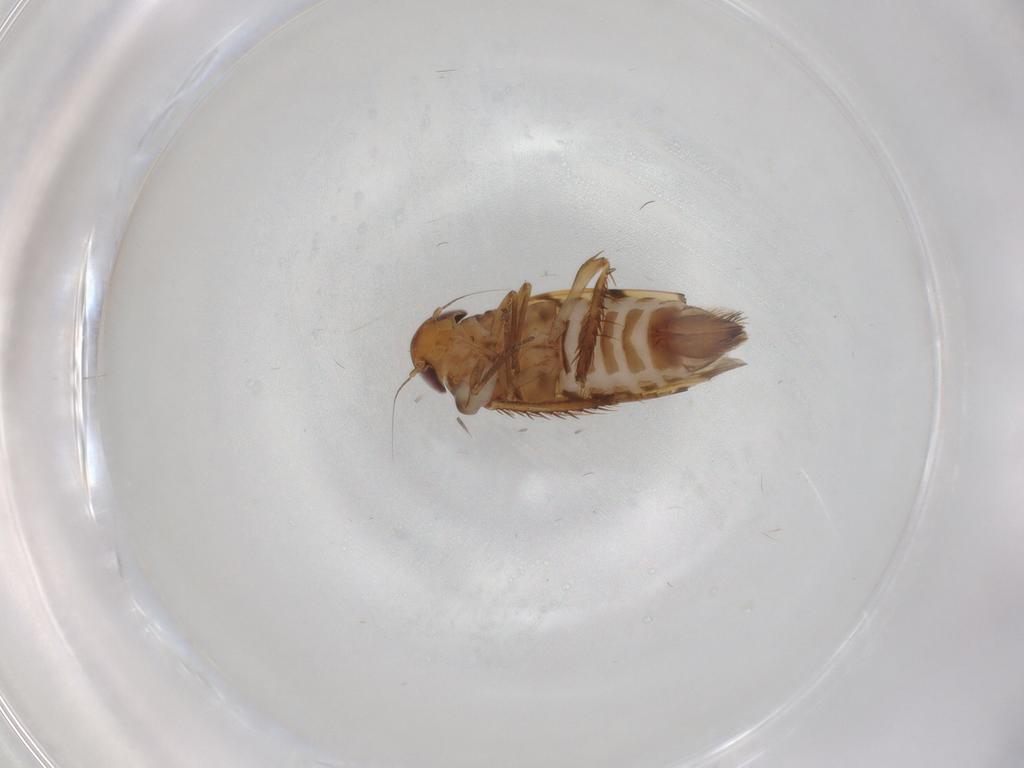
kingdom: Animalia
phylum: Arthropoda
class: Insecta
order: Hemiptera
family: Cicadellidae
